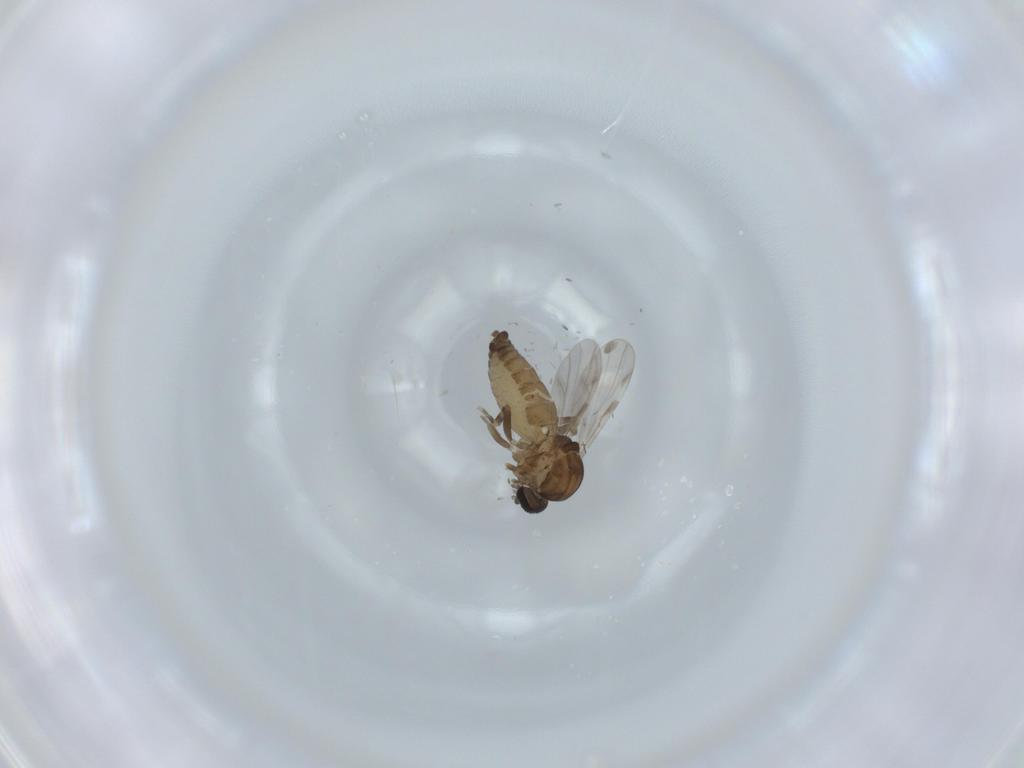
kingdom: Animalia
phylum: Arthropoda
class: Insecta
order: Diptera
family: Ceratopogonidae
